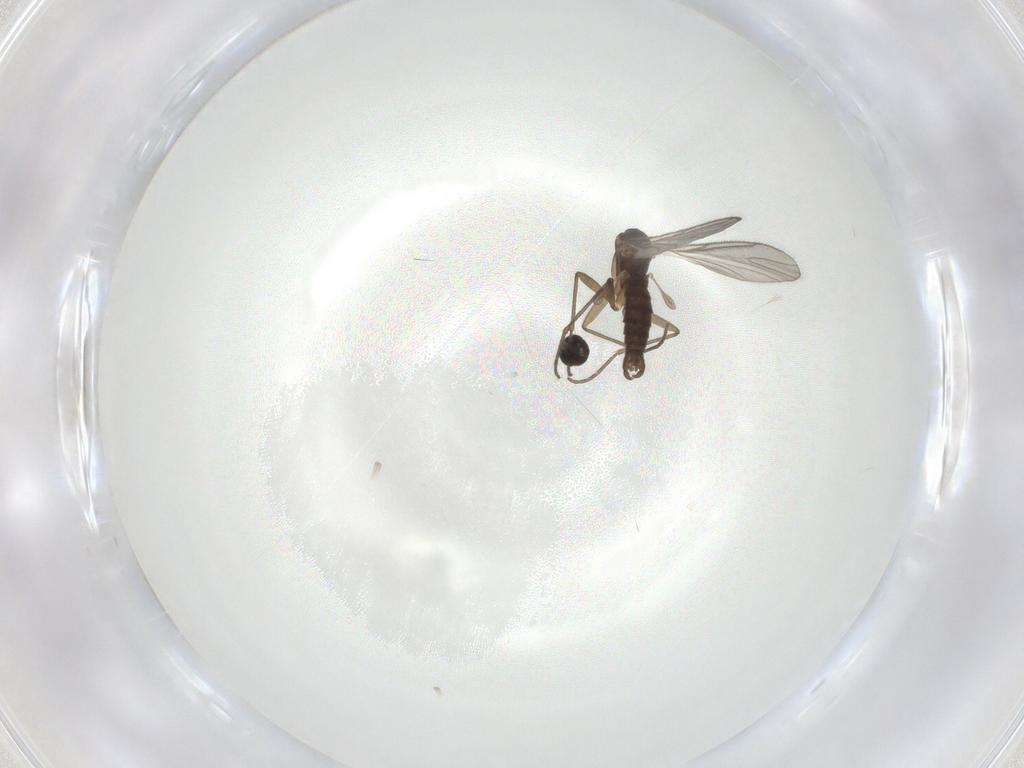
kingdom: Animalia
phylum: Arthropoda
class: Insecta
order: Diptera
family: Sciaridae
